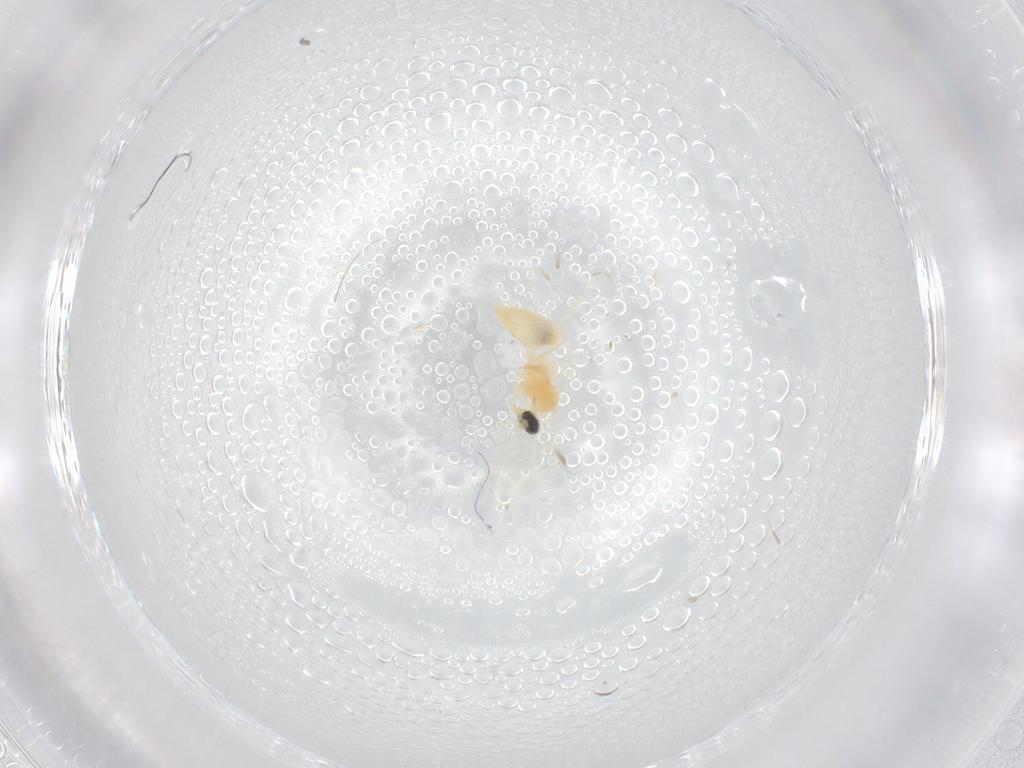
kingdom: Animalia
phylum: Arthropoda
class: Insecta
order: Diptera
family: Cecidomyiidae
